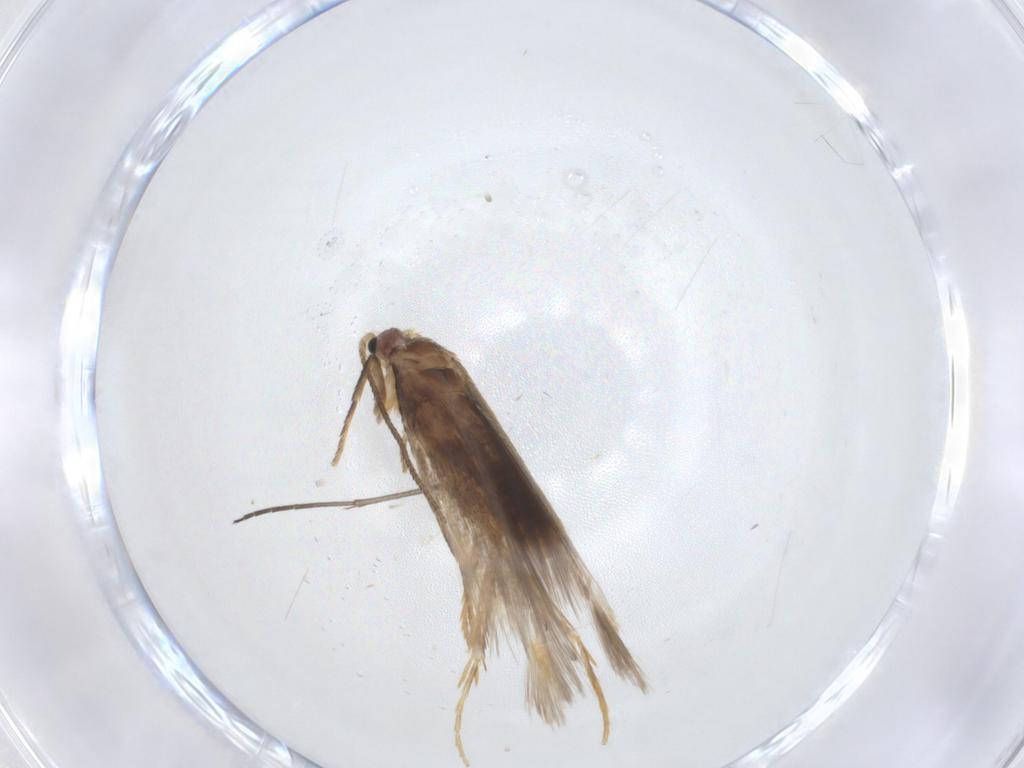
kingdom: Animalia
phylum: Arthropoda
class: Insecta
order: Lepidoptera
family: Nepticulidae
